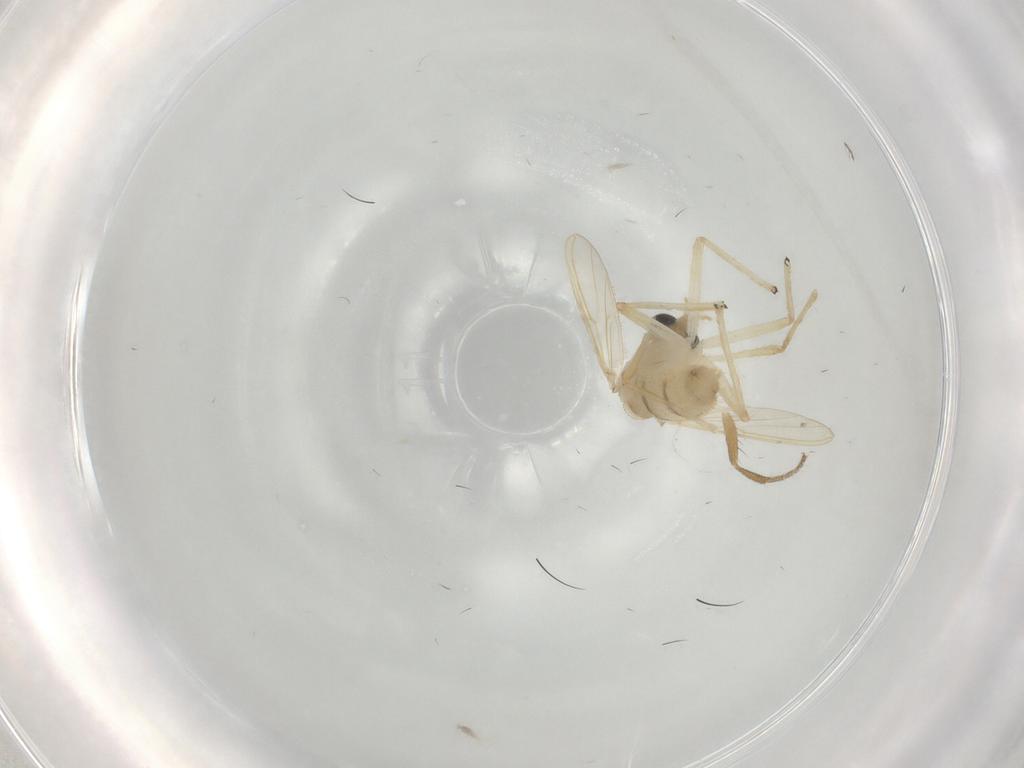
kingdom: Animalia
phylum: Arthropoda
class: Insecta
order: Diptera
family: Chironomidae
